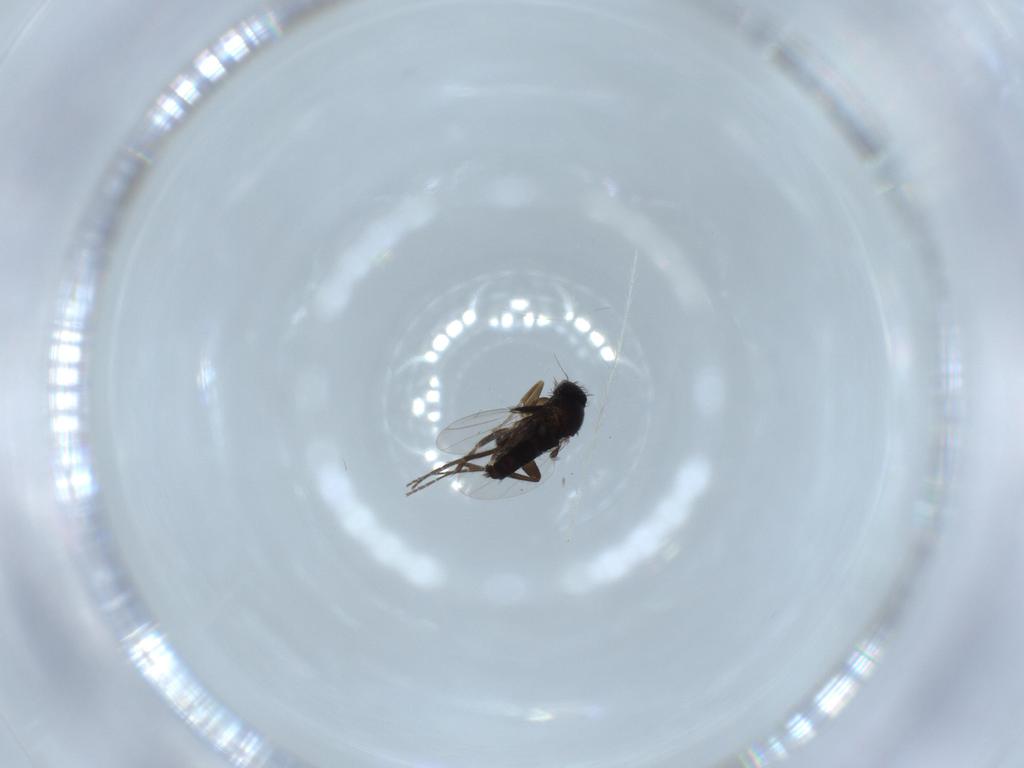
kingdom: Animalia
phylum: Arthropoda
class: Insecta
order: Diptera
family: Phoridae
